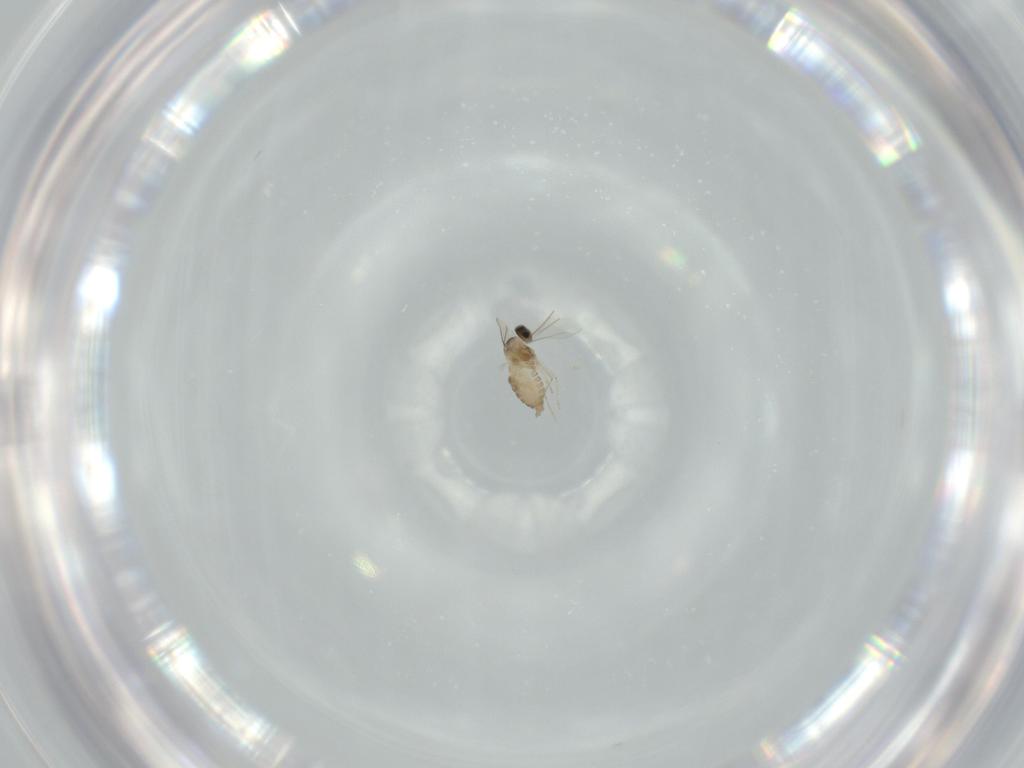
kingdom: Animalia
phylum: Arthropoda
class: Insecta
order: Diptera
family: Cecidomyiidae
